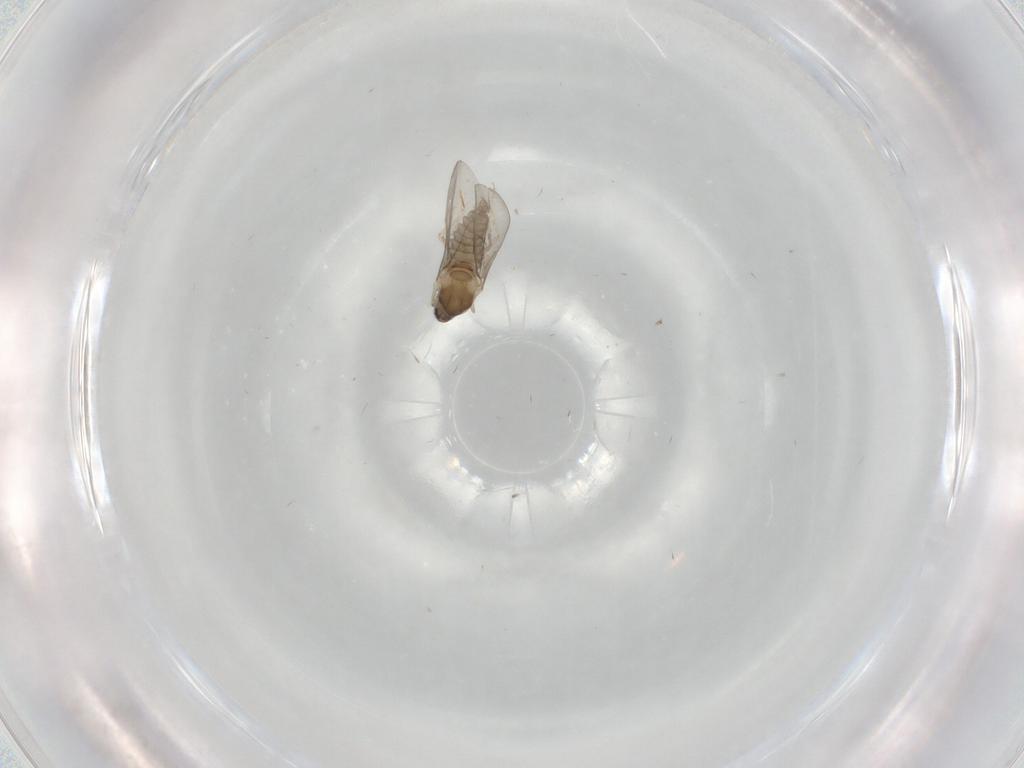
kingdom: Animalia
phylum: Arthropoda
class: Insecta
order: Diptera
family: Cecidomyiidae
